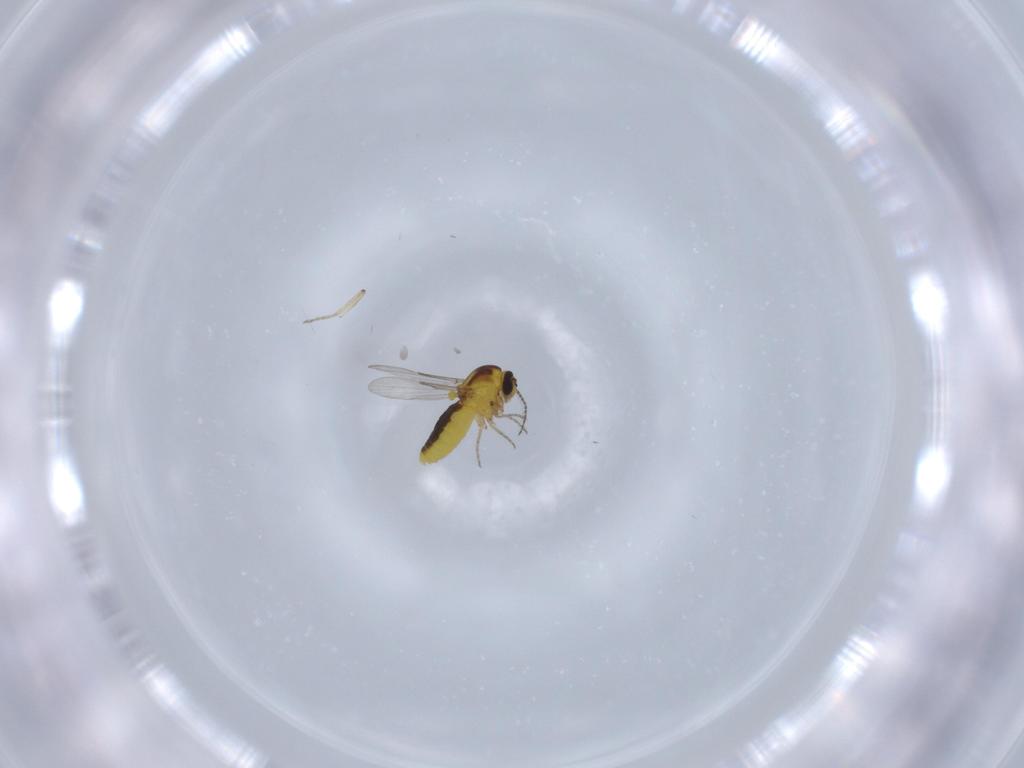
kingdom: Animalia
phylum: Arthropoda
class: Insecta
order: Diptera
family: Ceratopogonidae
